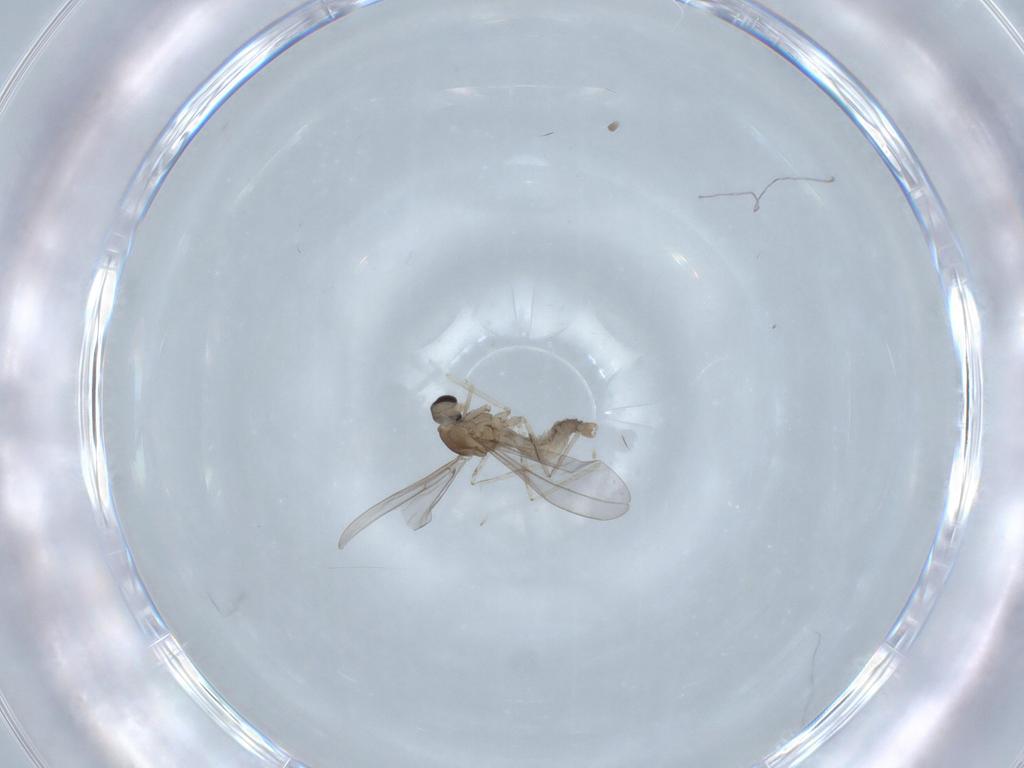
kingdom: Animalia
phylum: Arthropoda
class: Insecta
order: Diptera
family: Cecidomyiidae
